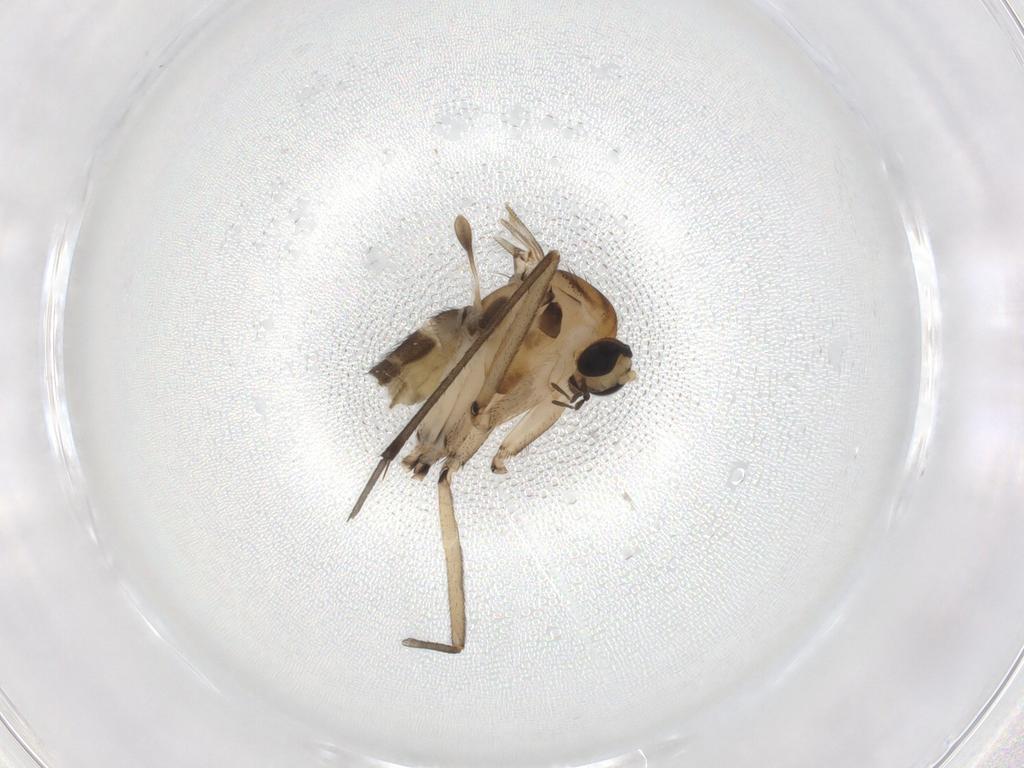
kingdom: Animalia
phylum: Arthropoda
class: Insecta
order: Diptera
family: Sciaridae
